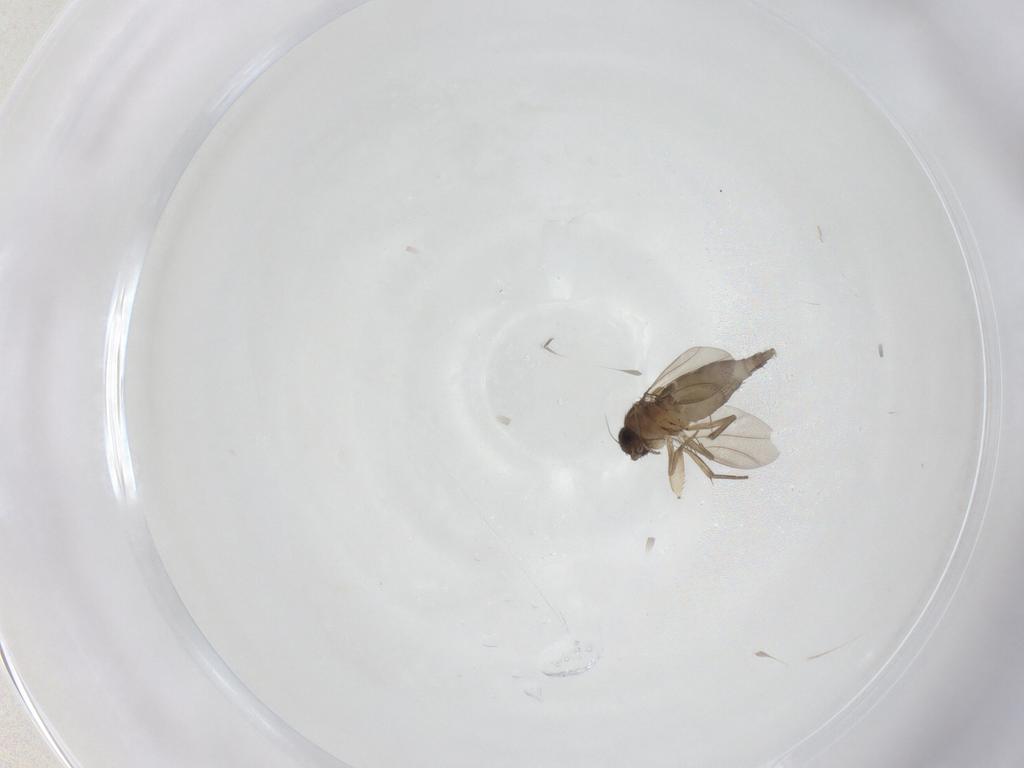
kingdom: Animalia
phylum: Arthropoda
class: Insecta
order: Diptera
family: Phoridae
